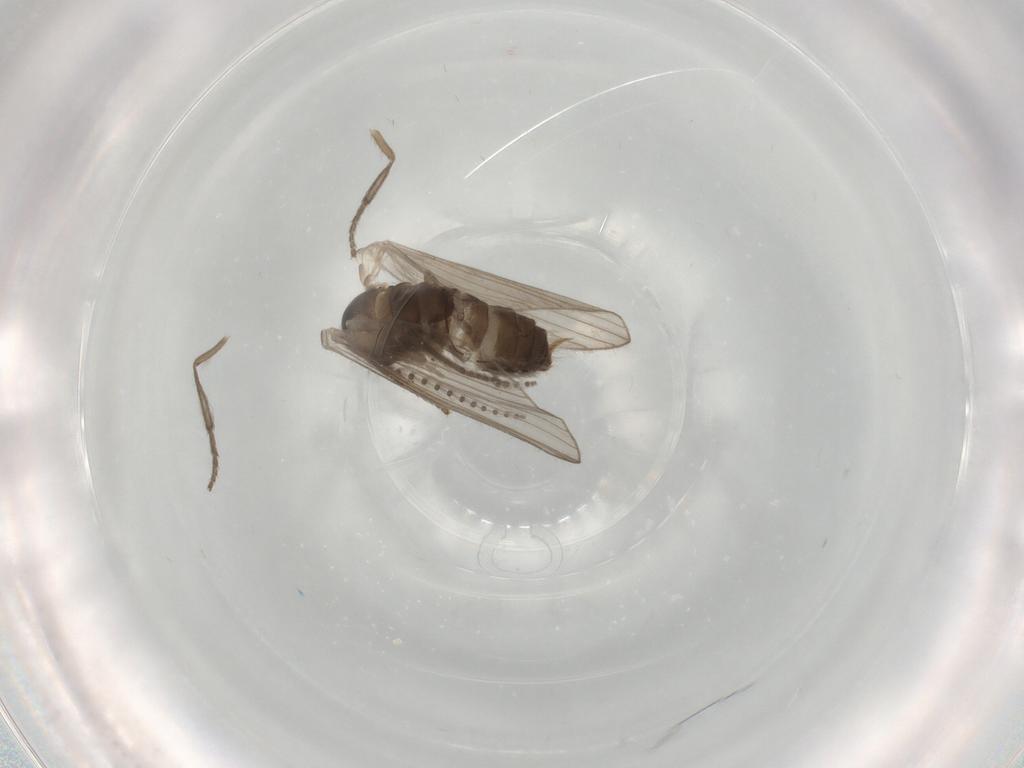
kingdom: Animalia
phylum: Arthropoda
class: Insecta
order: Diptera
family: Psychodidae
